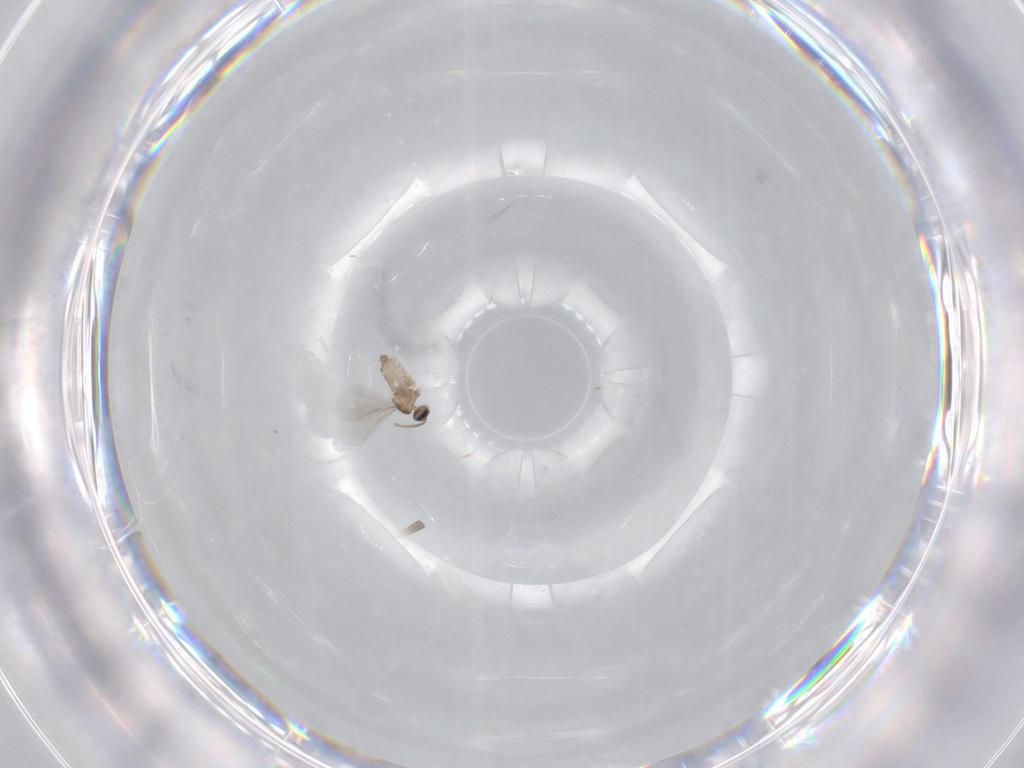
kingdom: Animalia
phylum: Arthropoda
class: Insecta
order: Diptera
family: Cecidomyiidae
